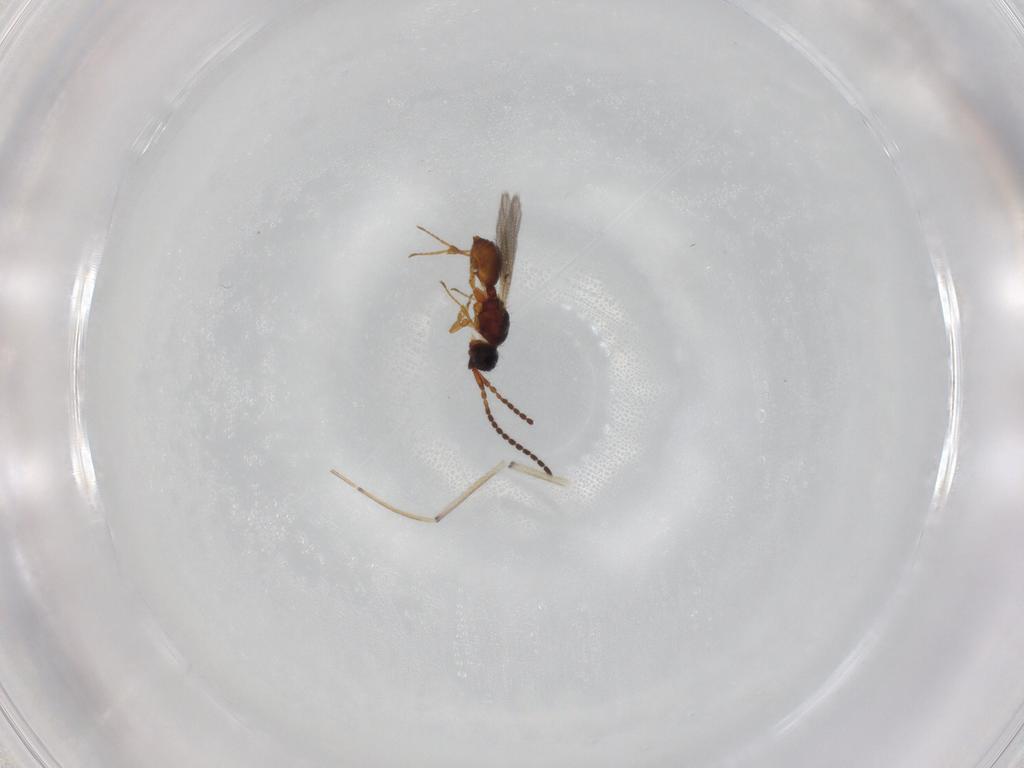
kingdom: Animalia
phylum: Arthropoda
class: Insecta
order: Hymenoptera
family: Diapriidae
